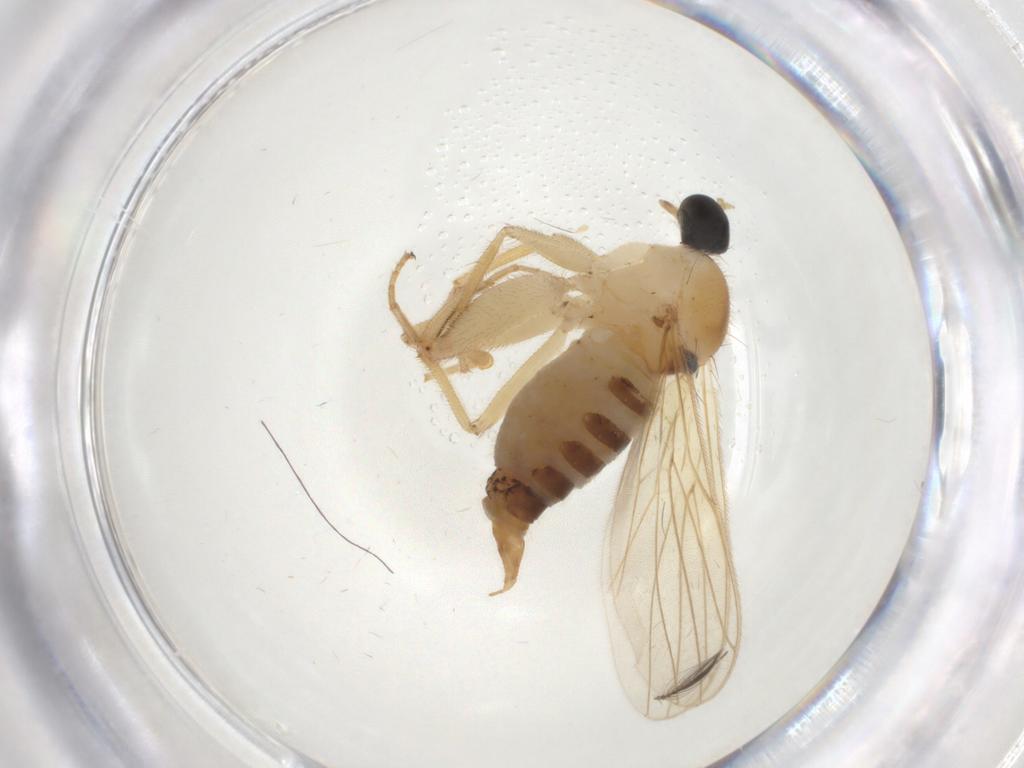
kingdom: Animalia
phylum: Arthropoda
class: Insecta
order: Diptera
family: Hybotidae
